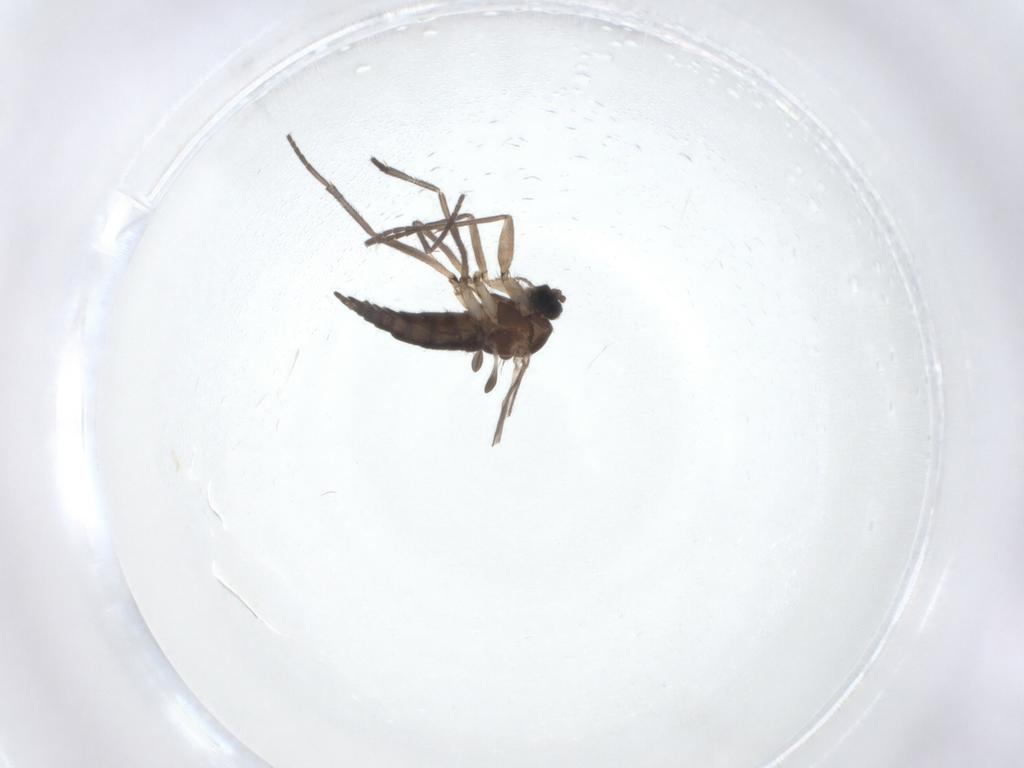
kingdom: Animalia
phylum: Arthropoda
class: Insecta
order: Diptera
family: Sciaridae
